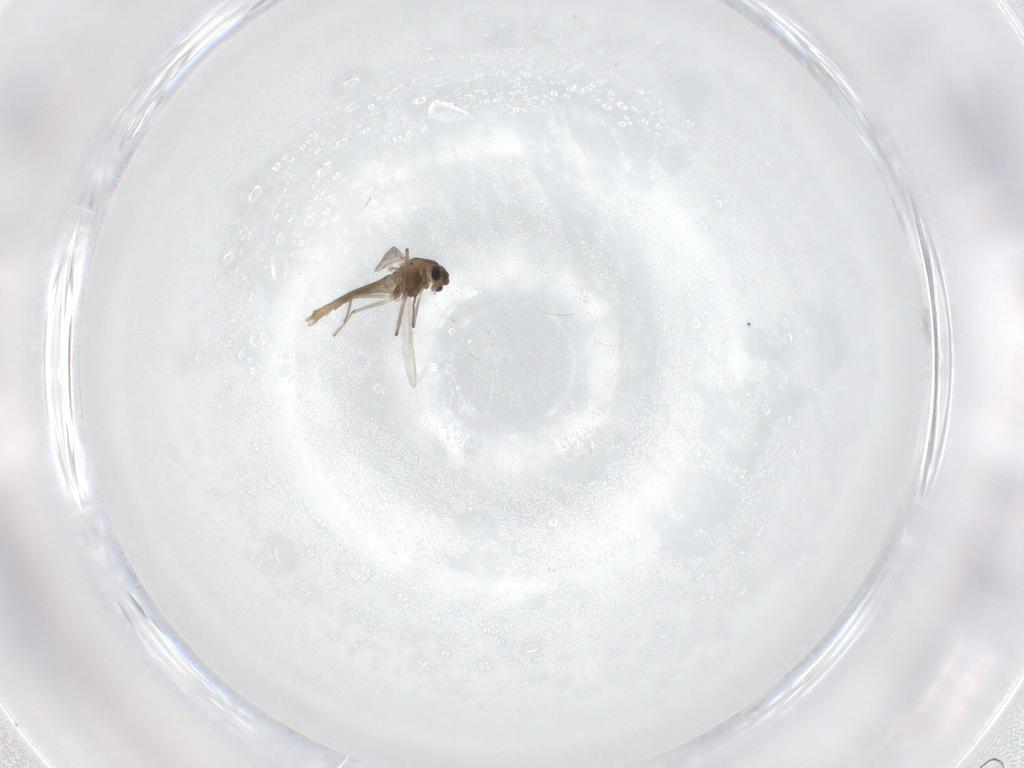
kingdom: Animalia
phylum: Arthropoda
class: Insecta
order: Diptera
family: Chironomidae
